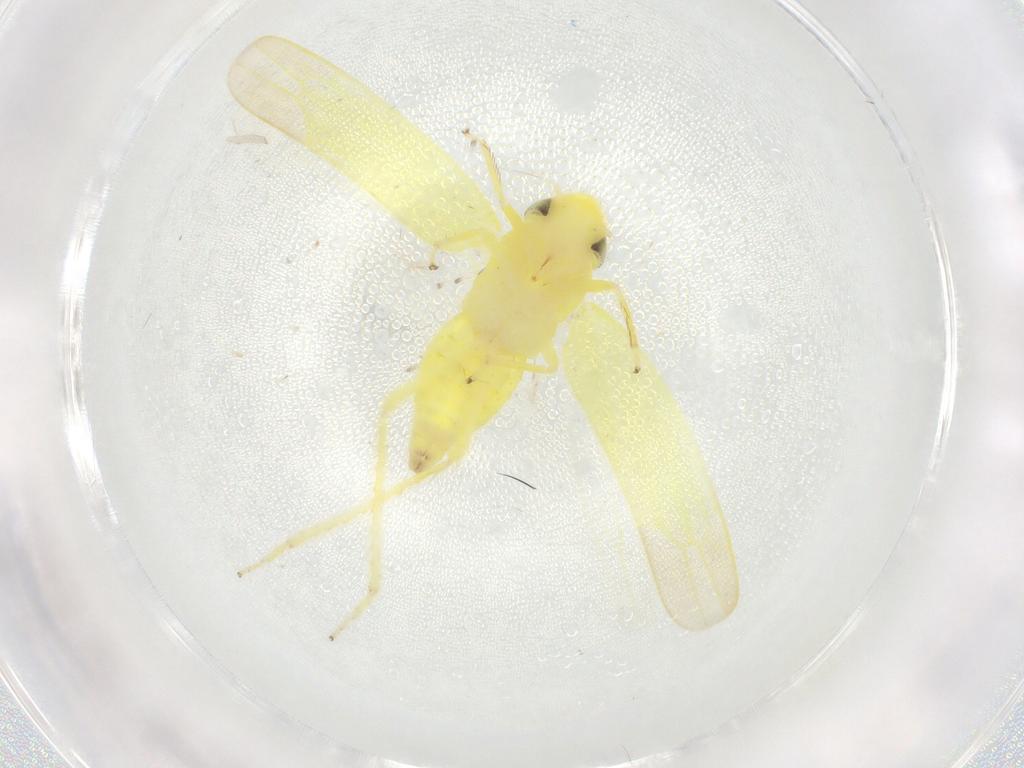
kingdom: Animalia
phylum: Arthropoda
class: Insecta
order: Hemiptera
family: Cicadellidae
